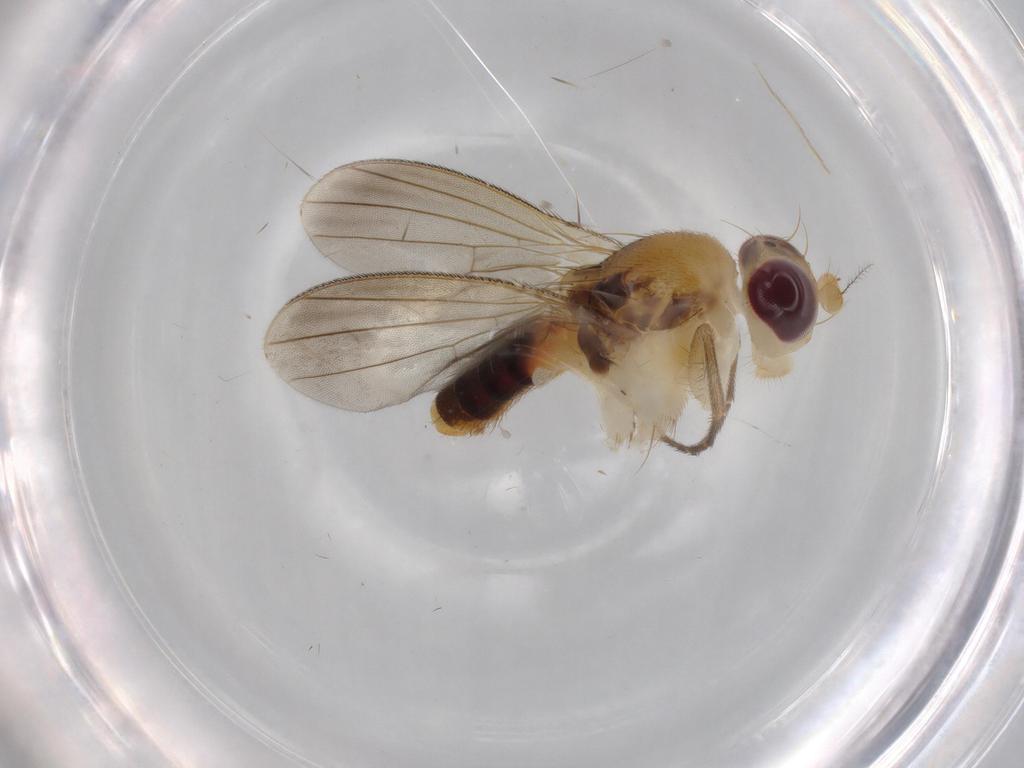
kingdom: Animalia
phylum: Arthropoda
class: Insecta
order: Diptera
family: Agromyzidae
